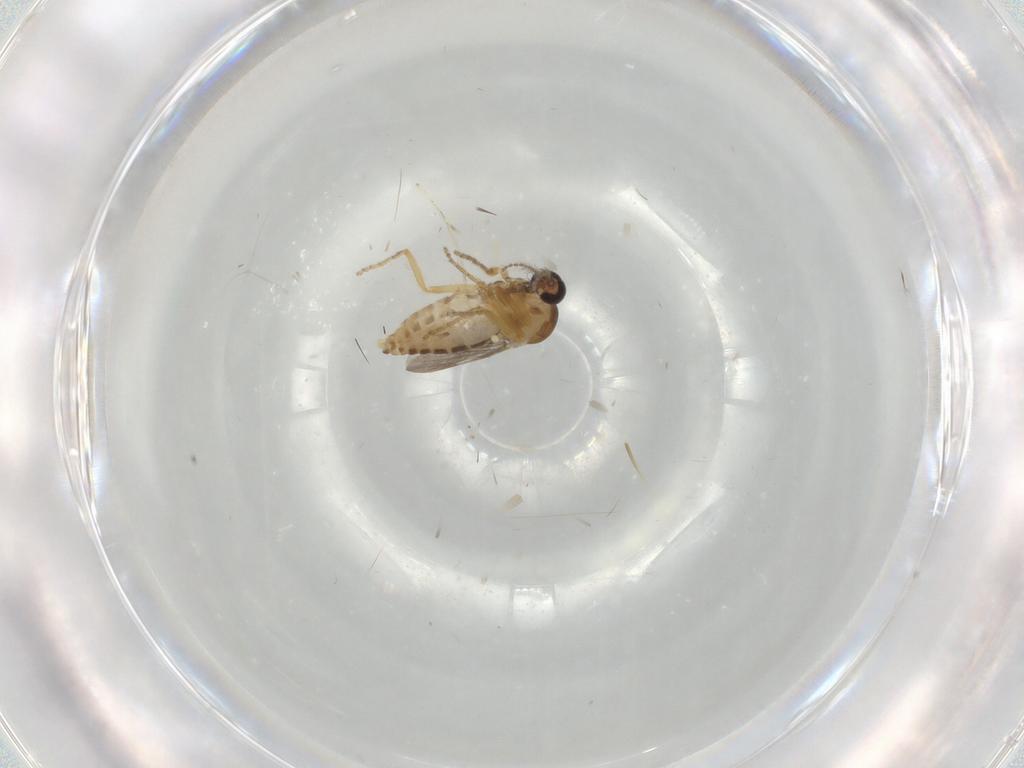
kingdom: Animalia
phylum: Arthropoda
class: Insecta
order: Diptera
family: Ceratopogonidae
